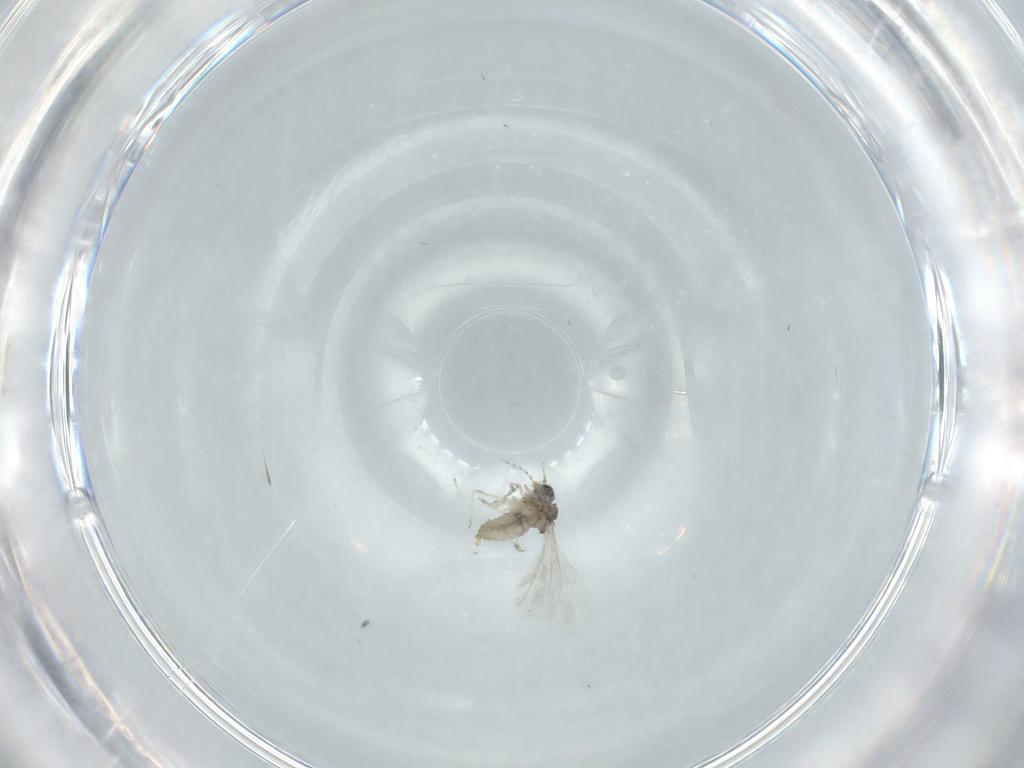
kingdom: Animalia
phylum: Arthropoda
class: Insecta
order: Diptera
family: Cecidomyiidae
